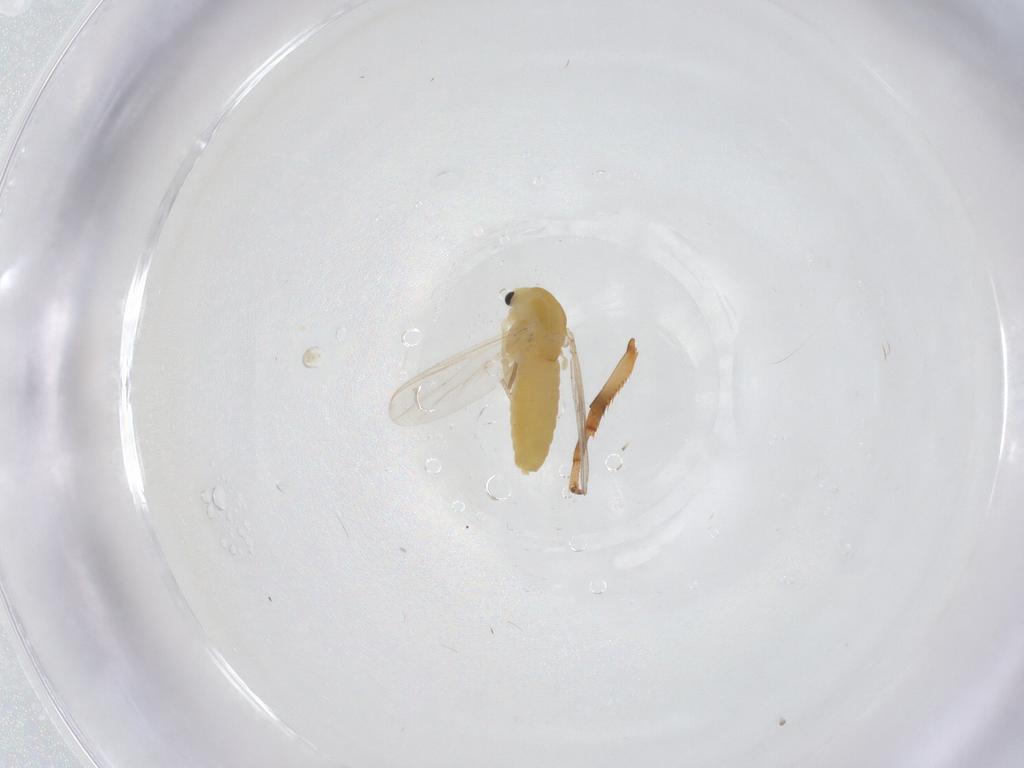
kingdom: Animalia
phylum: Arthropoda
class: Insecta
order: Diptera
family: Chironomidae
